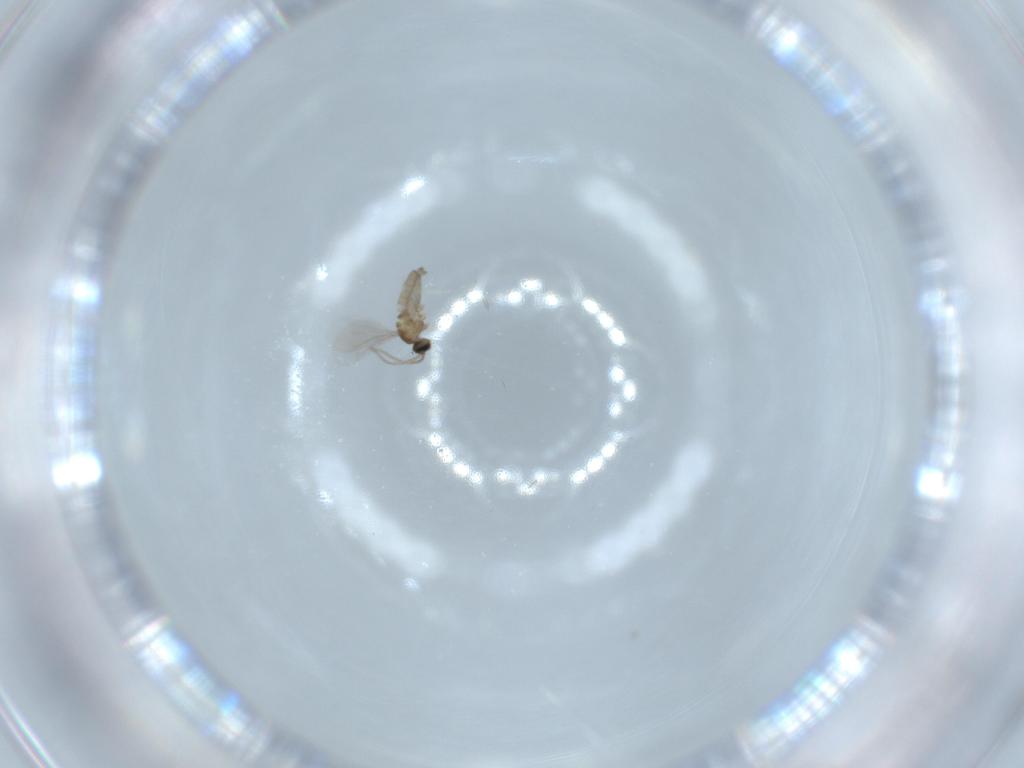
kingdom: Animalia
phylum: Arthropoda
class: Insecta
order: Diptera
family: Cecidomyiidae
